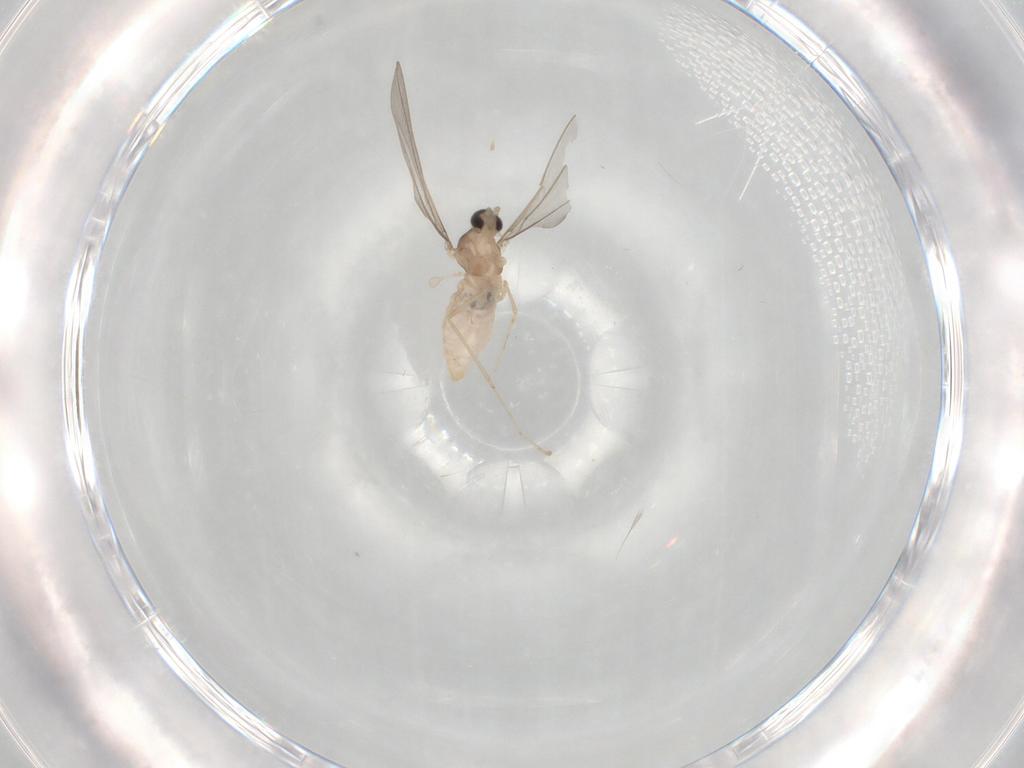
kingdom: Animalia
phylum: Arthropoda
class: Insecta
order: Diptera
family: Cecidomyiidae
